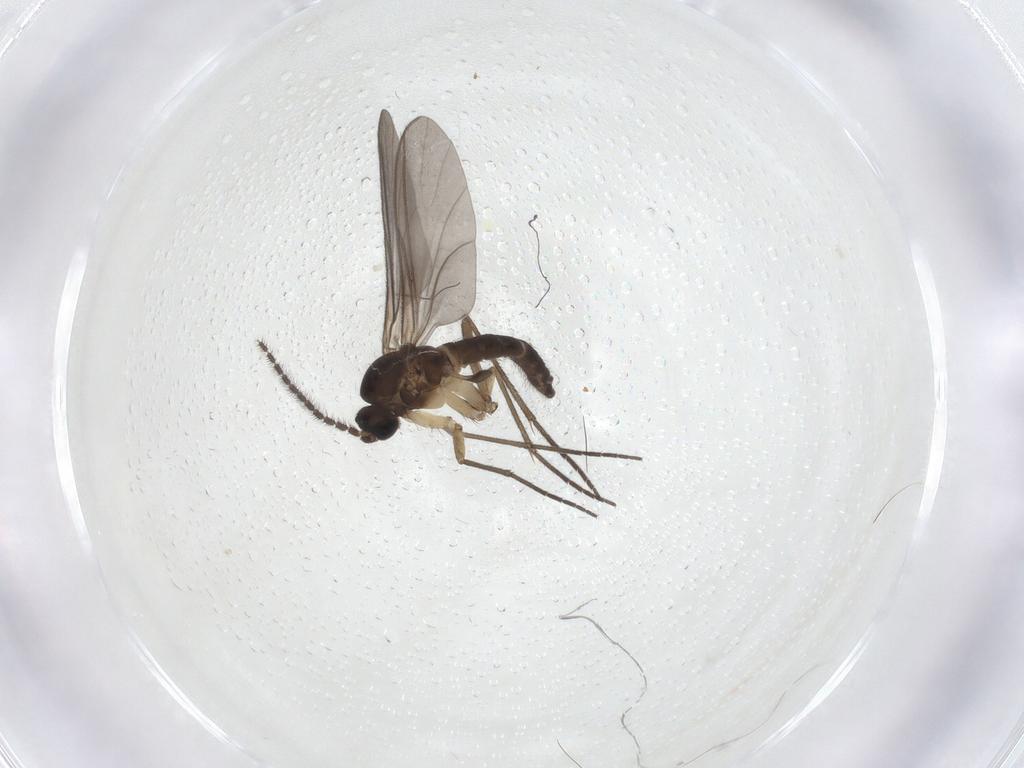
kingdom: Animalia
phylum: Arthropoda
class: Insecta
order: Diptera
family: Sciaridae
